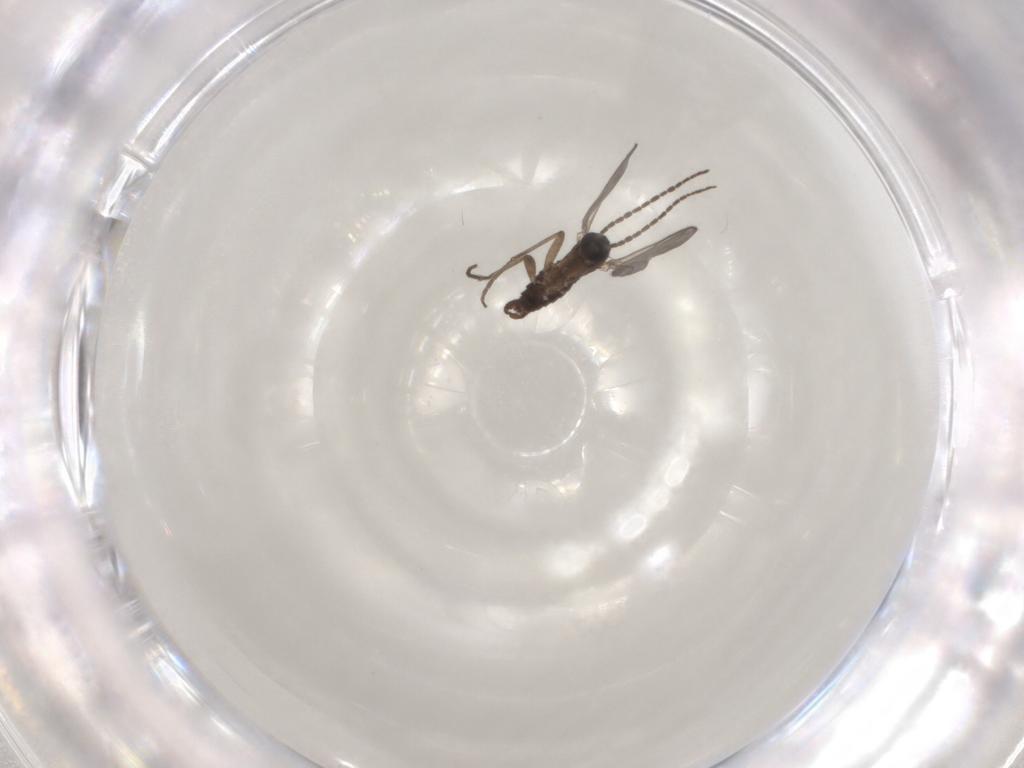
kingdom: Animalia
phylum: Arthropoda
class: Insecta
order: Diptera
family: Sciaridae
